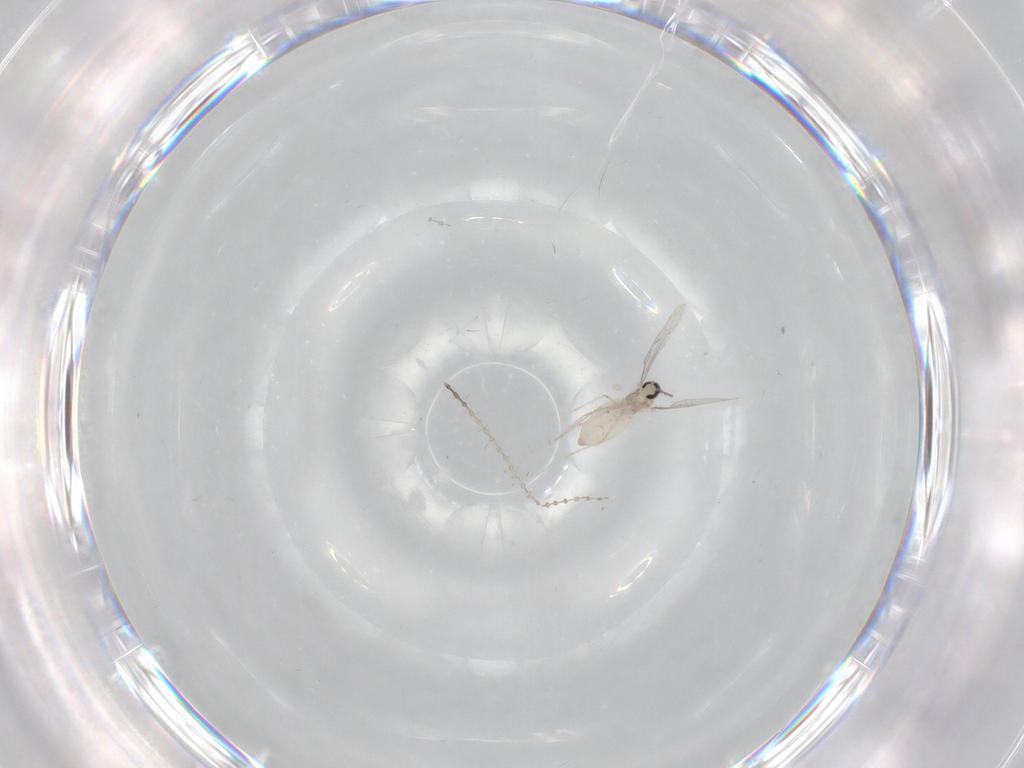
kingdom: Animalia
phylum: Arthropoda
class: Insecta
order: Diptera
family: Cecidomyiidae
